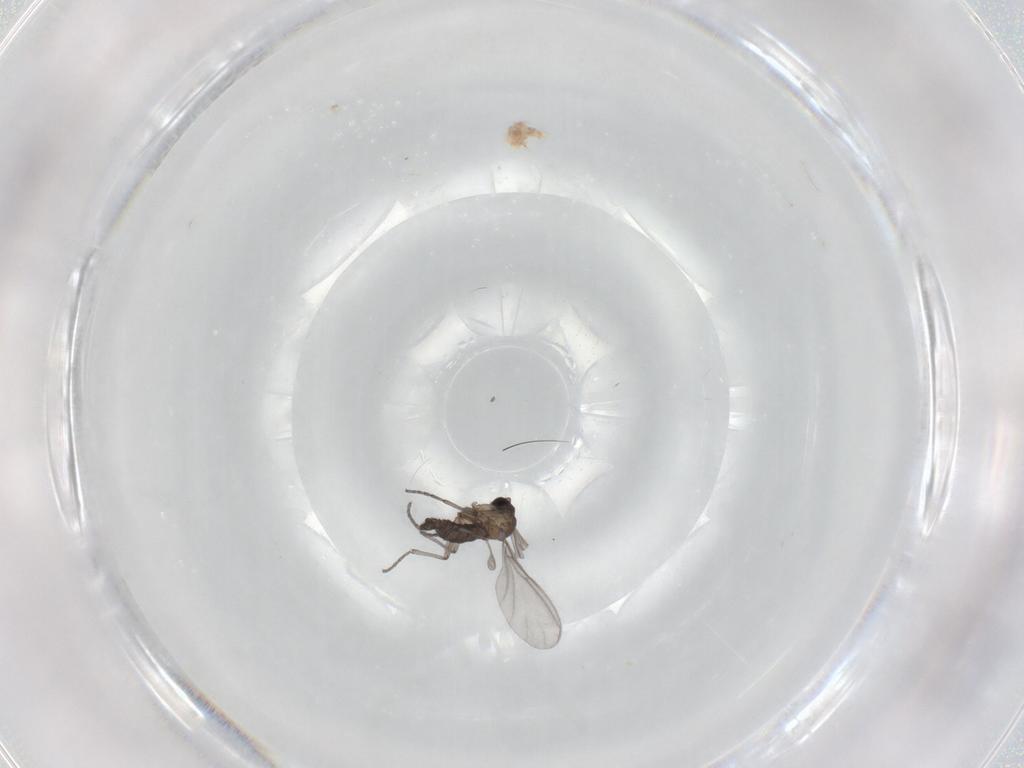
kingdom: Animalia
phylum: Arthropoda
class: Insecta
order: Diptera
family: Sciaridae
